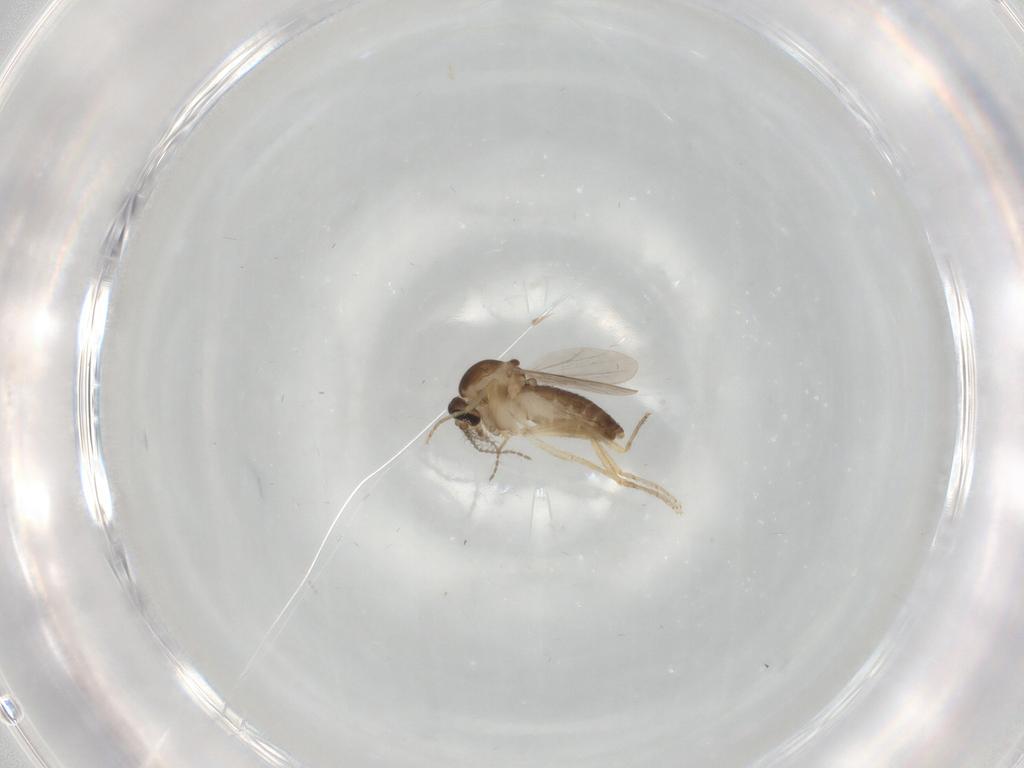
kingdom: Animalia
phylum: Arthropoda
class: Insecta
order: Diptera
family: Ceratopogonidae
